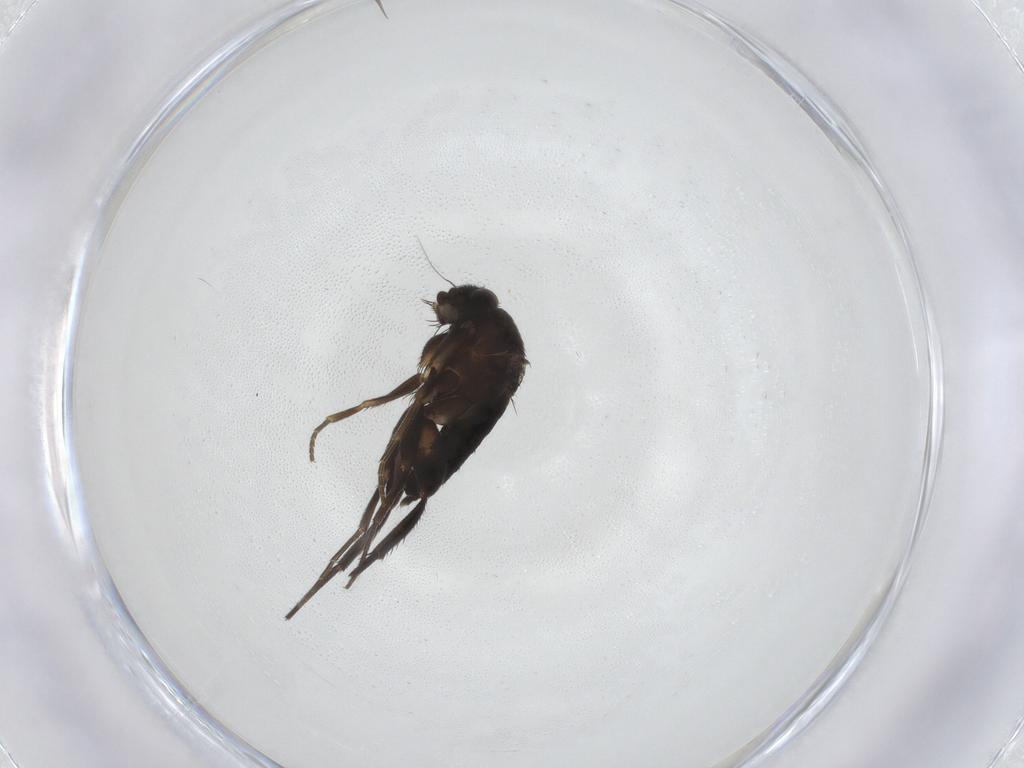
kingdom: Animalia
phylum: Arthropoda
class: Insecta
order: Diptera
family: Phoridae
